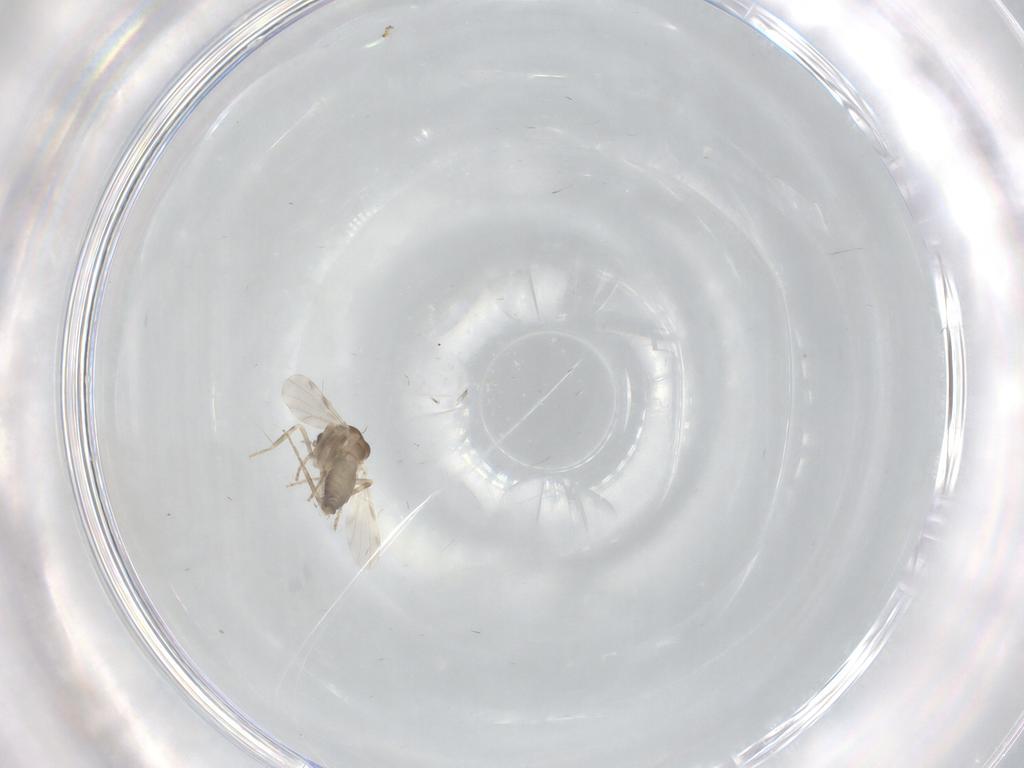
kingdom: Animalia
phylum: Arthropoda
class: Insecta
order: Diptera
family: Ceratopogonidae
